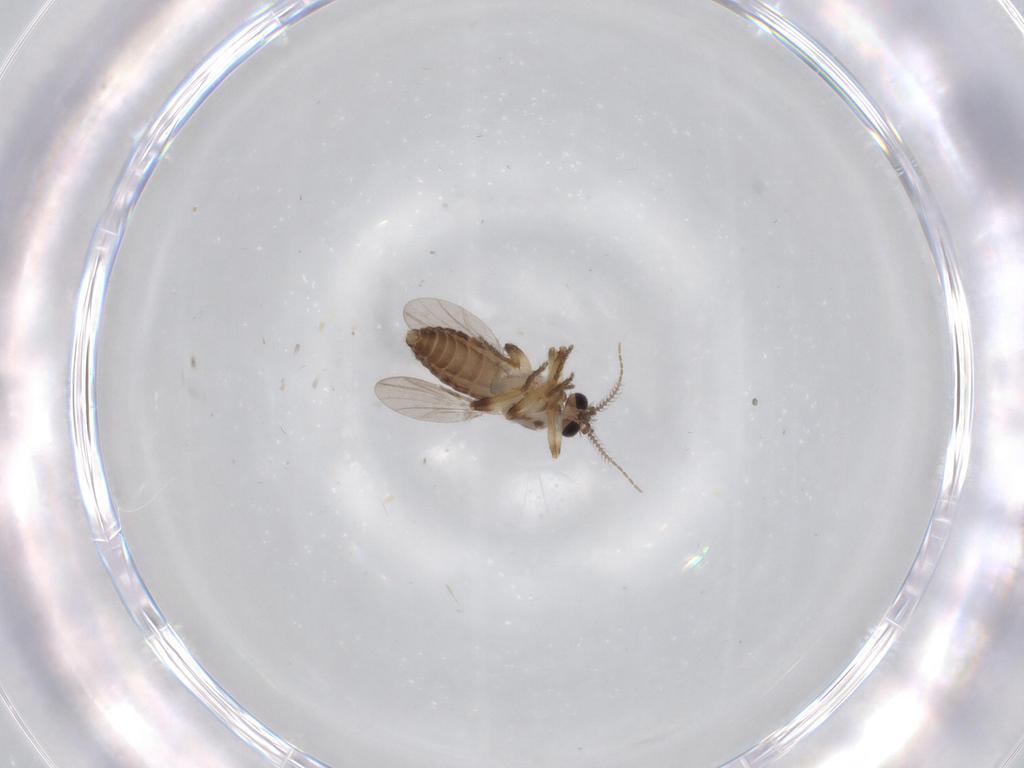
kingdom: Animalia
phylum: Arthropoda
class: Insecta
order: Diptera
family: Ceratopogonidae
